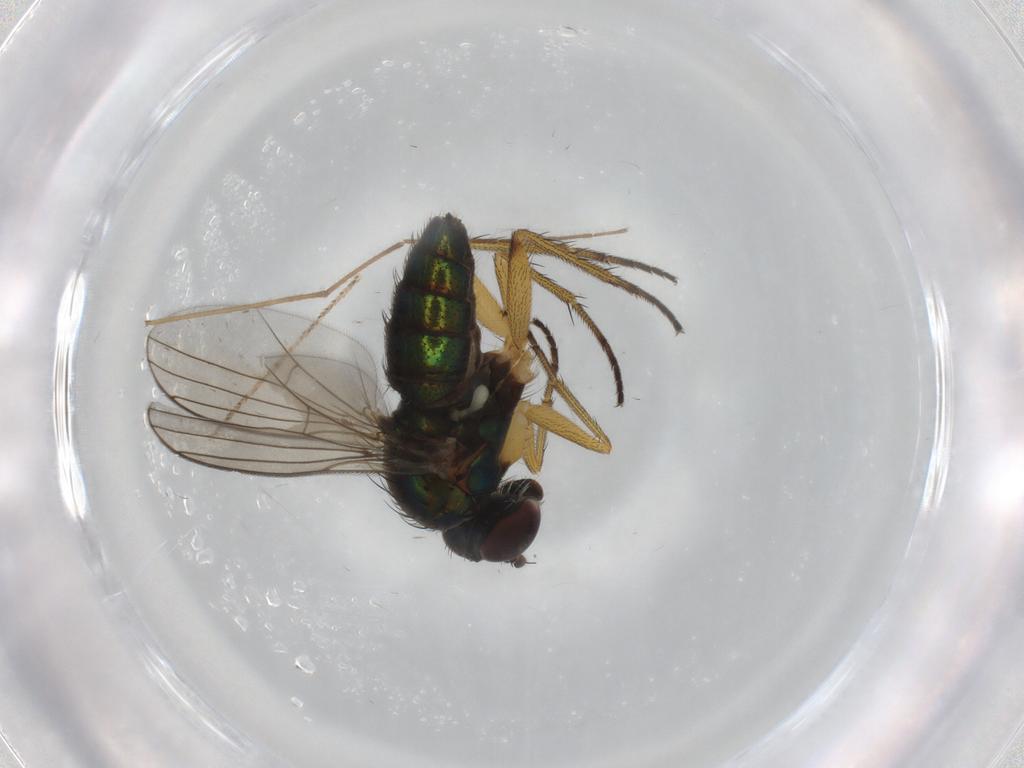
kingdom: Animalia
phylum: Arthropoda
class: Insecta
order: Diptera
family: Dolichopodidae
